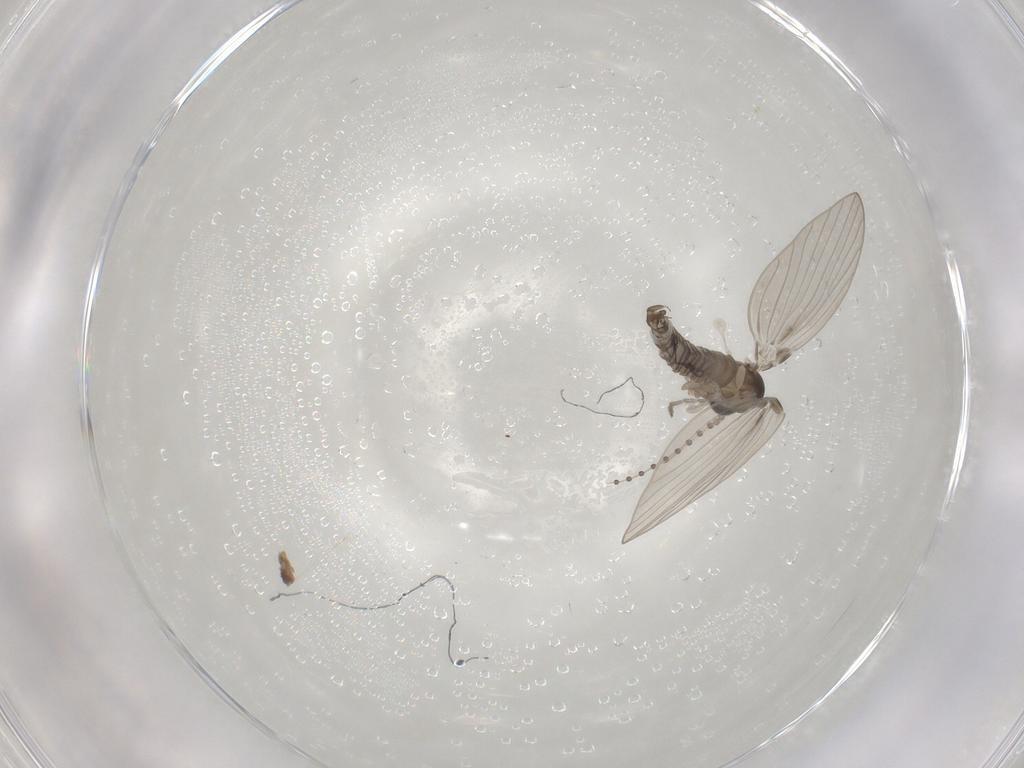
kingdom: Animalia
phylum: Arthropoda
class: Insecta
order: Diptera
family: Psychodidae
